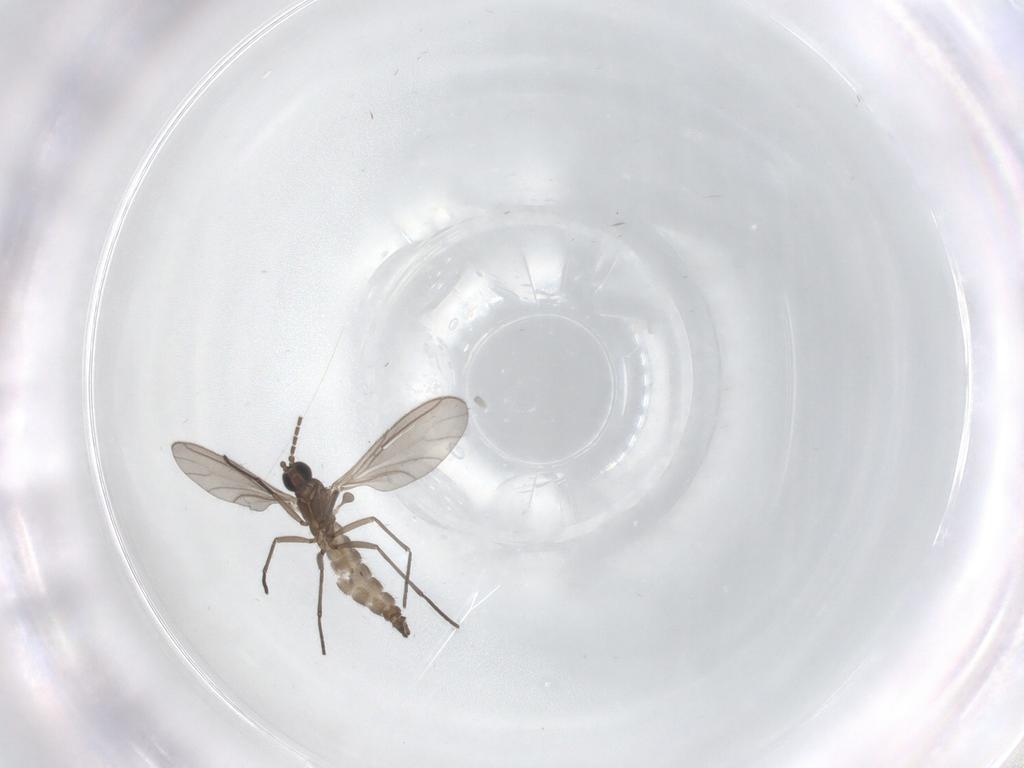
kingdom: Animalia
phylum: Arthropoda
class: Insecta
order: Diptera
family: Sciaridae
